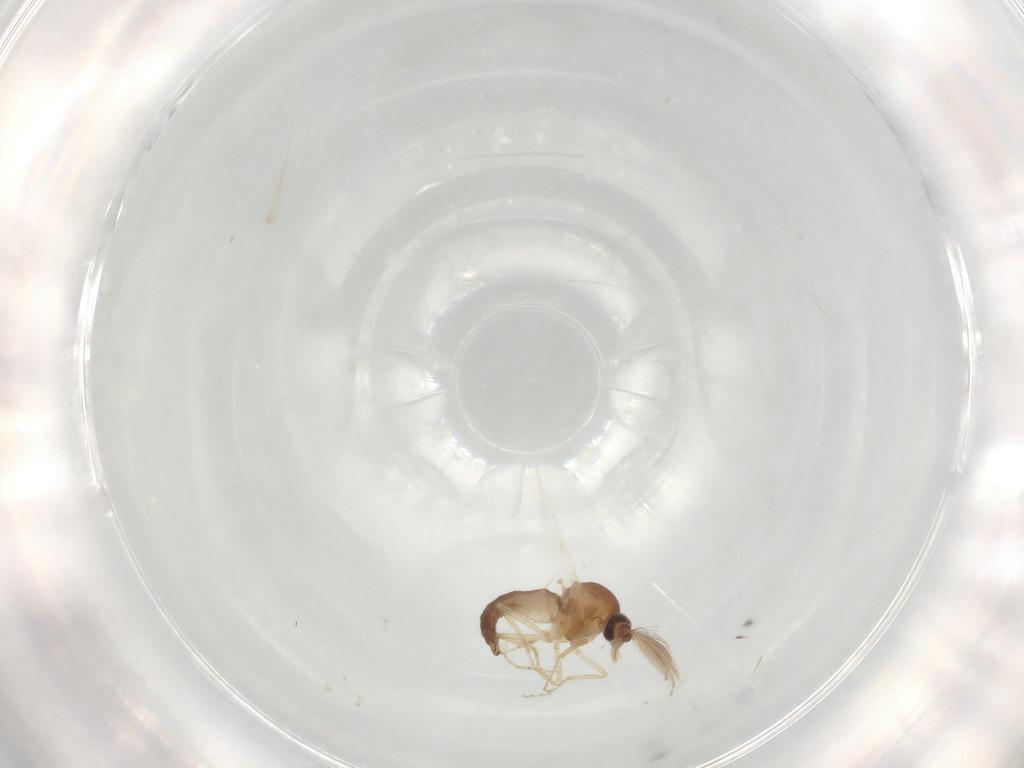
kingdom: Animalia
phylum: Arthropoda
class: Insecta
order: Diptera
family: Ceratopogonidae
